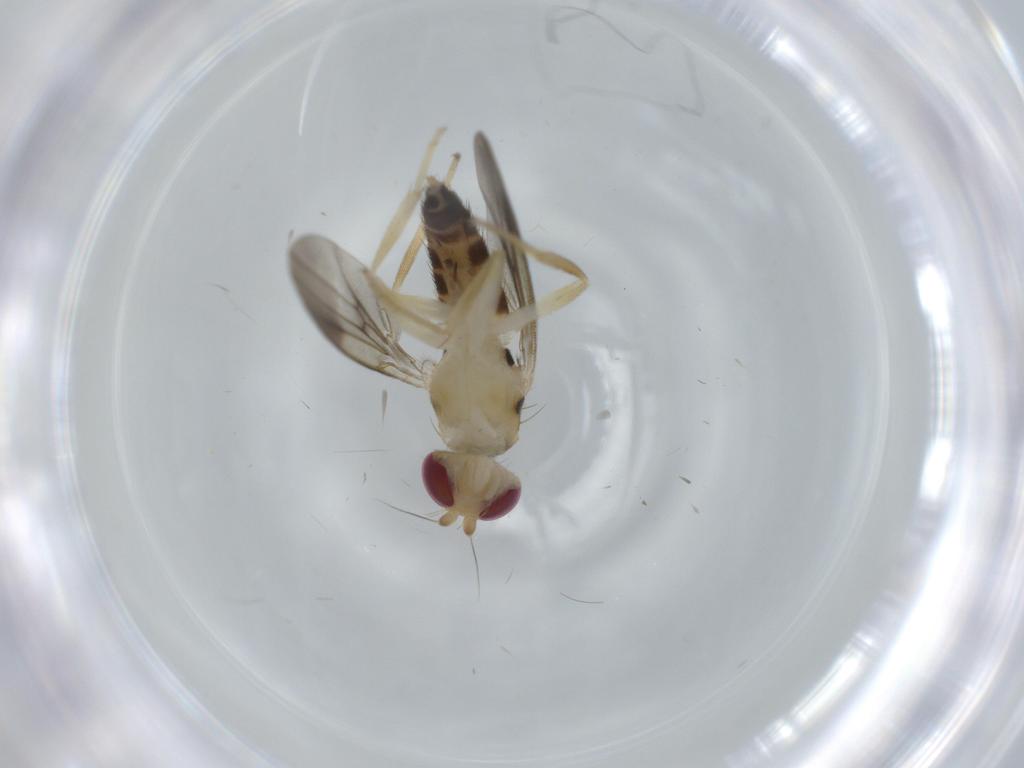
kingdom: Animalia
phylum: Arthropoda
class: Insecta
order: Diptera
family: Clusiidae
